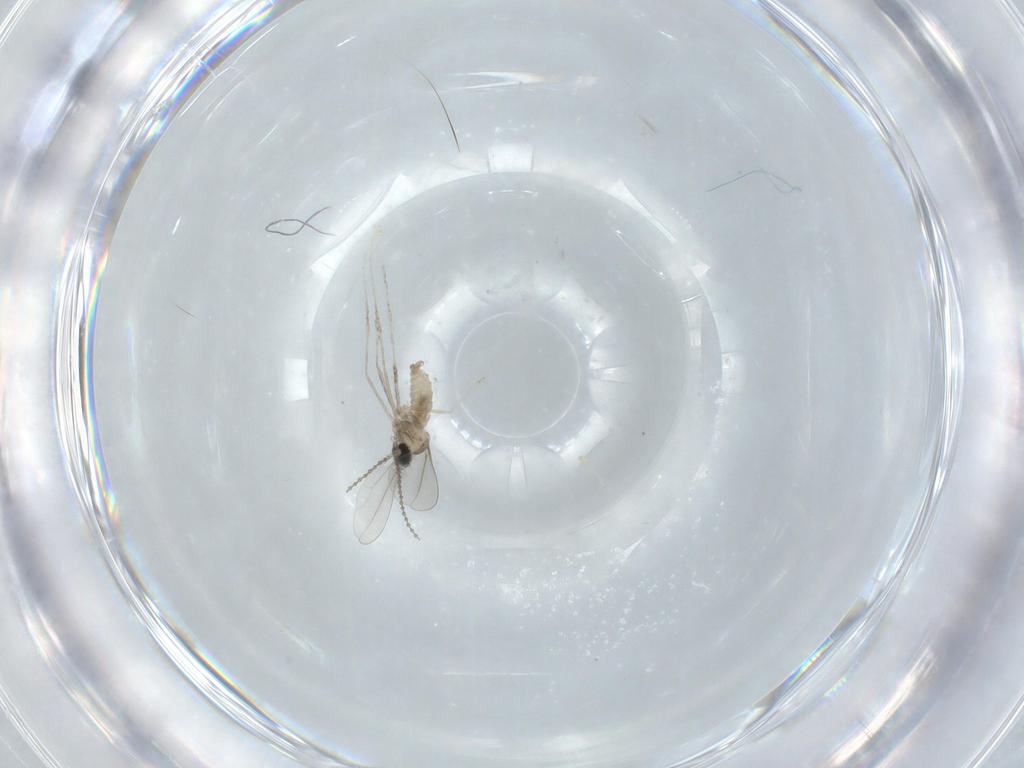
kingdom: Animalia
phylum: Arthropoda
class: Insecta
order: Diptera
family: Cecidomyiidae
